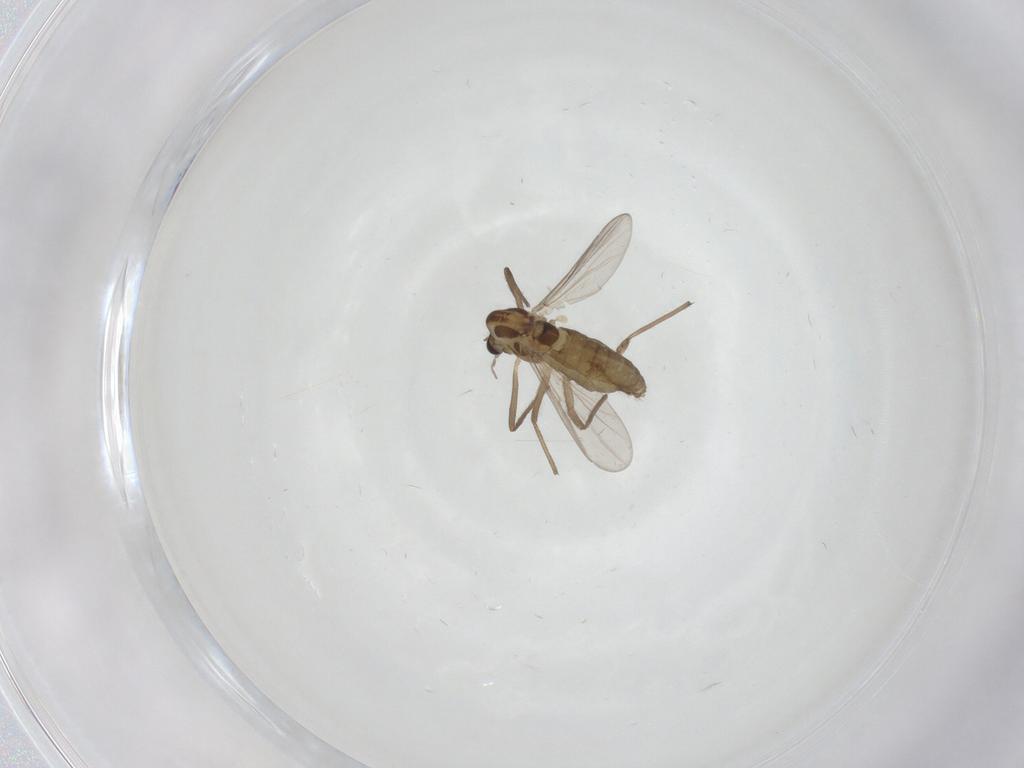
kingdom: Animalia
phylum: Arthropoda
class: Insecta
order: Diptera
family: Chironomidae
